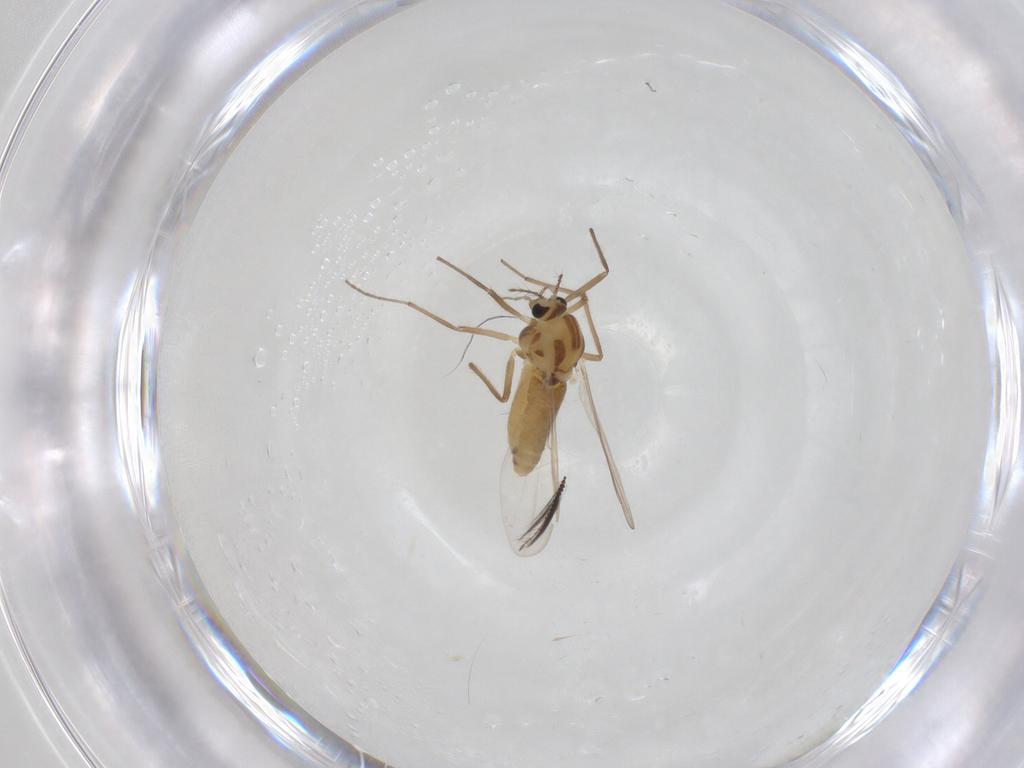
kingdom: Animalia
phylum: Arthropoda
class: Insecta
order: Diptera
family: Chironomidae
